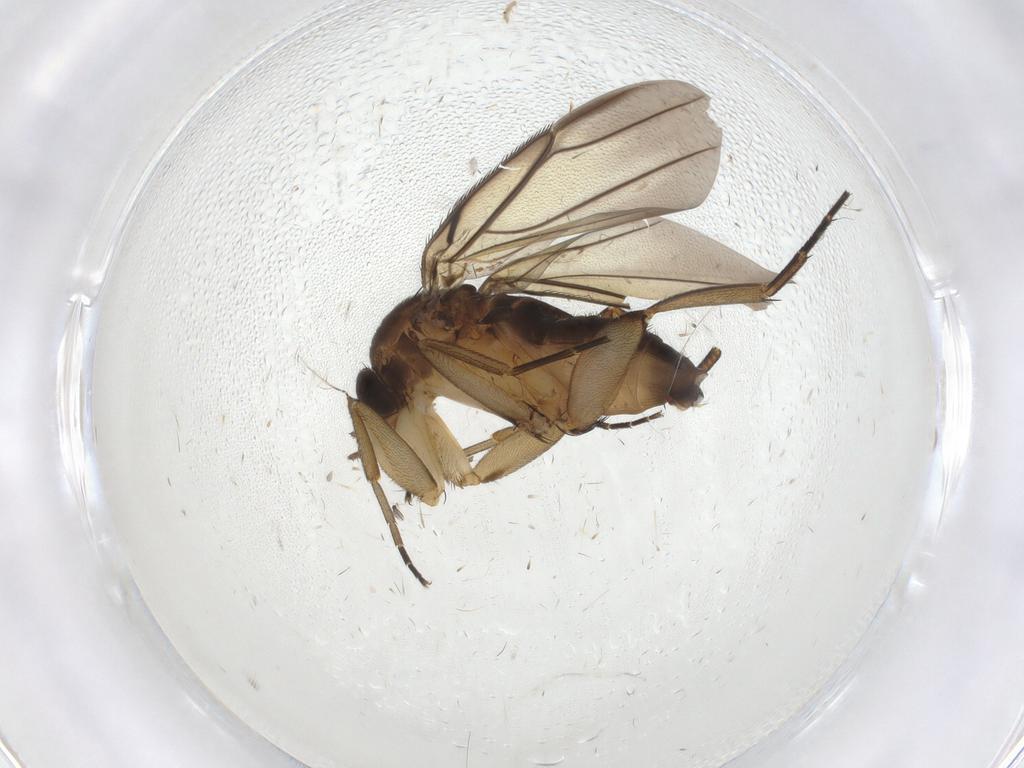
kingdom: Animalia
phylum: Arthropoda
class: Insecta
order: Diptera
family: Phoridae
